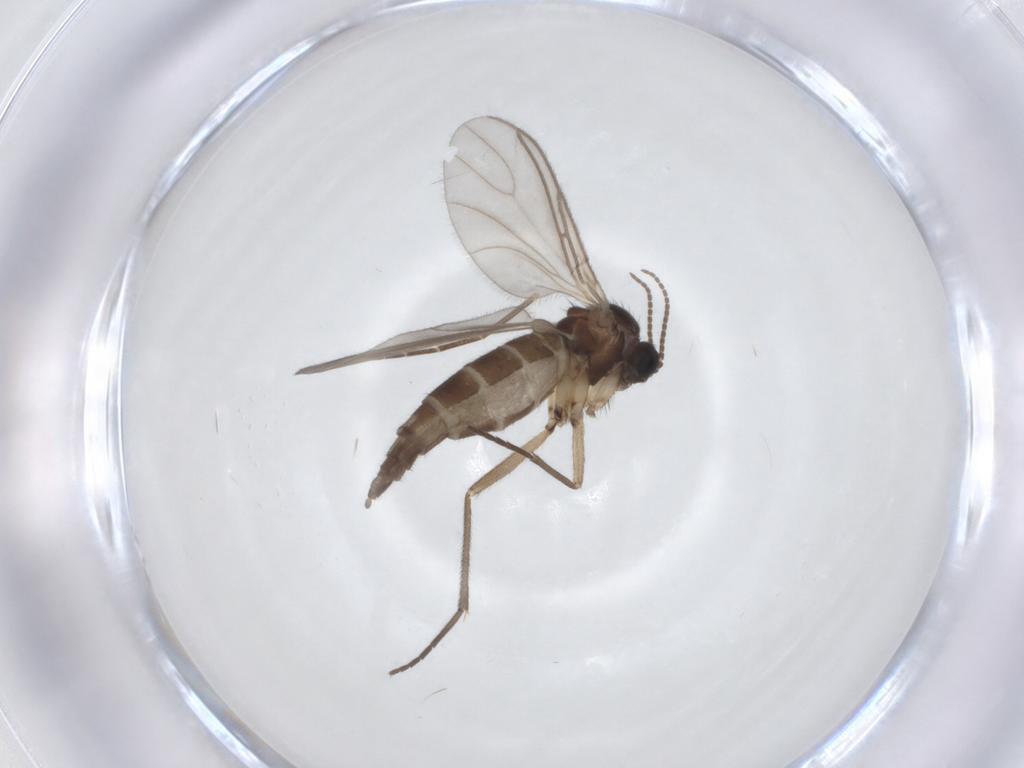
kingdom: Animalia
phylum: Arthropoda
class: Insecta
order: Diptera
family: Sciaridae
